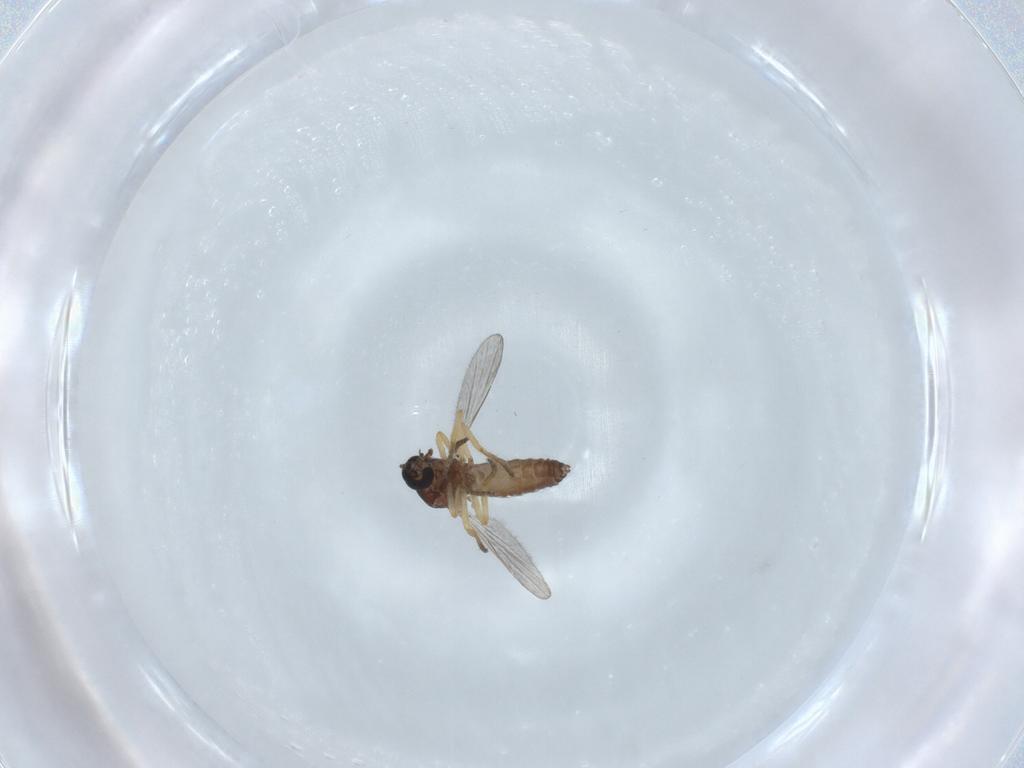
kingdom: Animalia
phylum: Arthropoda
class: Insecta
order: Diptera
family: Ceratopogonidae
